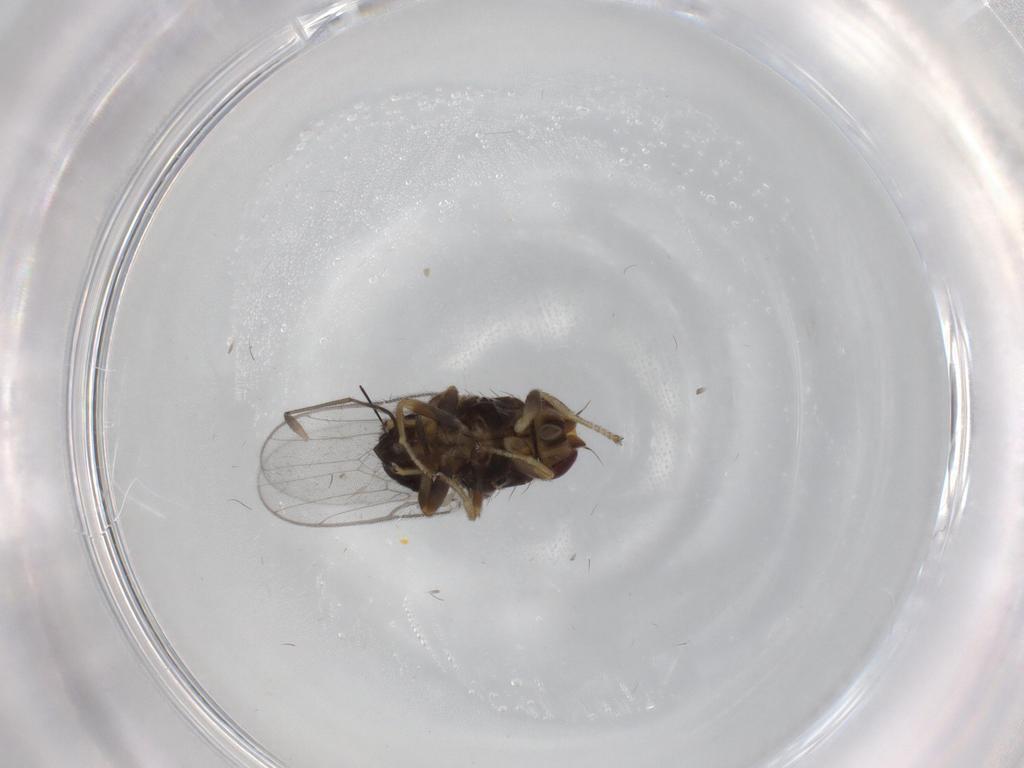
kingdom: Animalia
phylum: Arthropoda
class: Insecta
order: Diptera
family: Chloropidae
